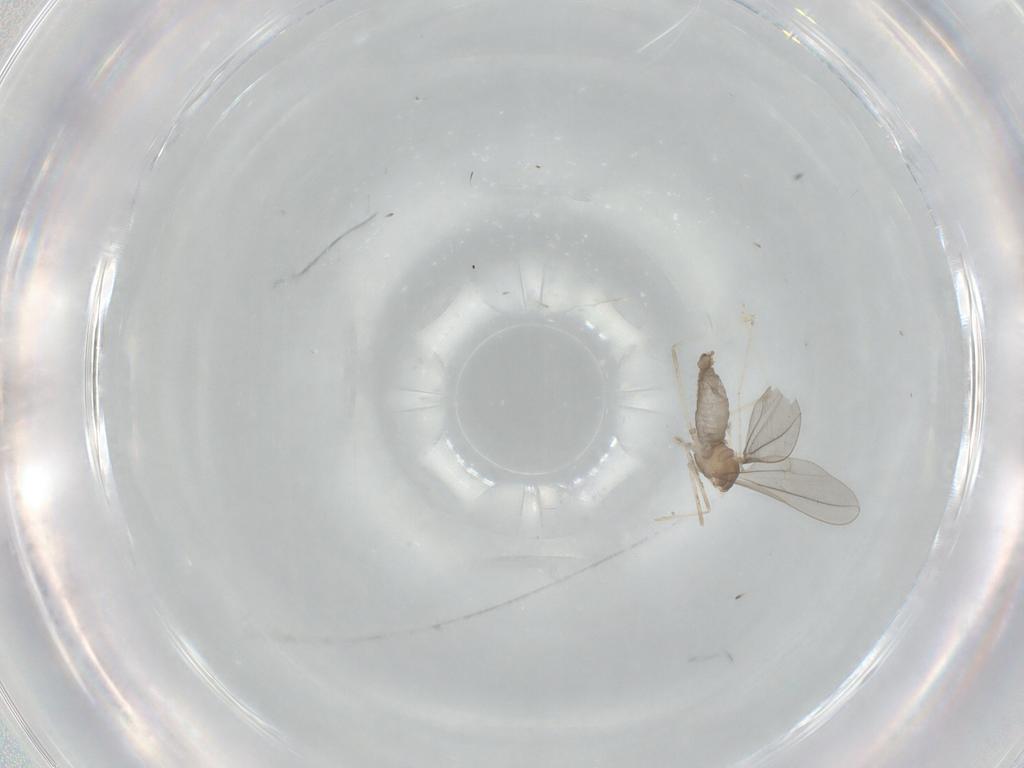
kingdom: Animalia
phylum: Arthropoda
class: Insecta
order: Diptera
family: Cecidomyiidae
